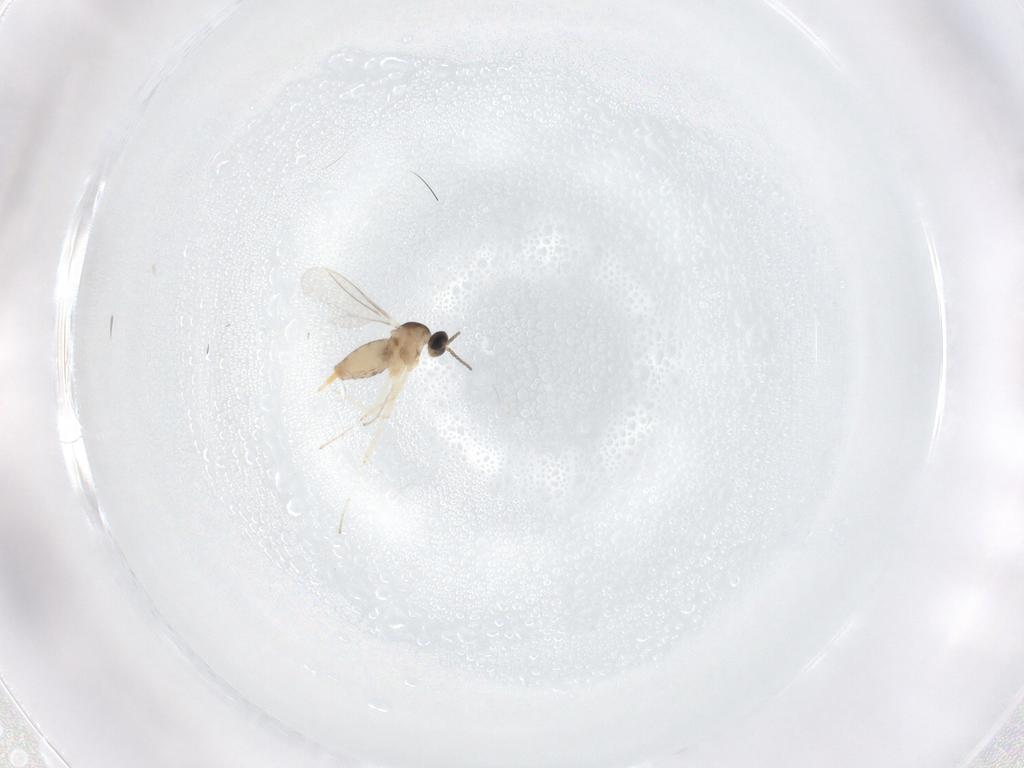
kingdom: Animalia
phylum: Arthropoda
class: Insecta
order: Diptera
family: Cecidomyiidae
